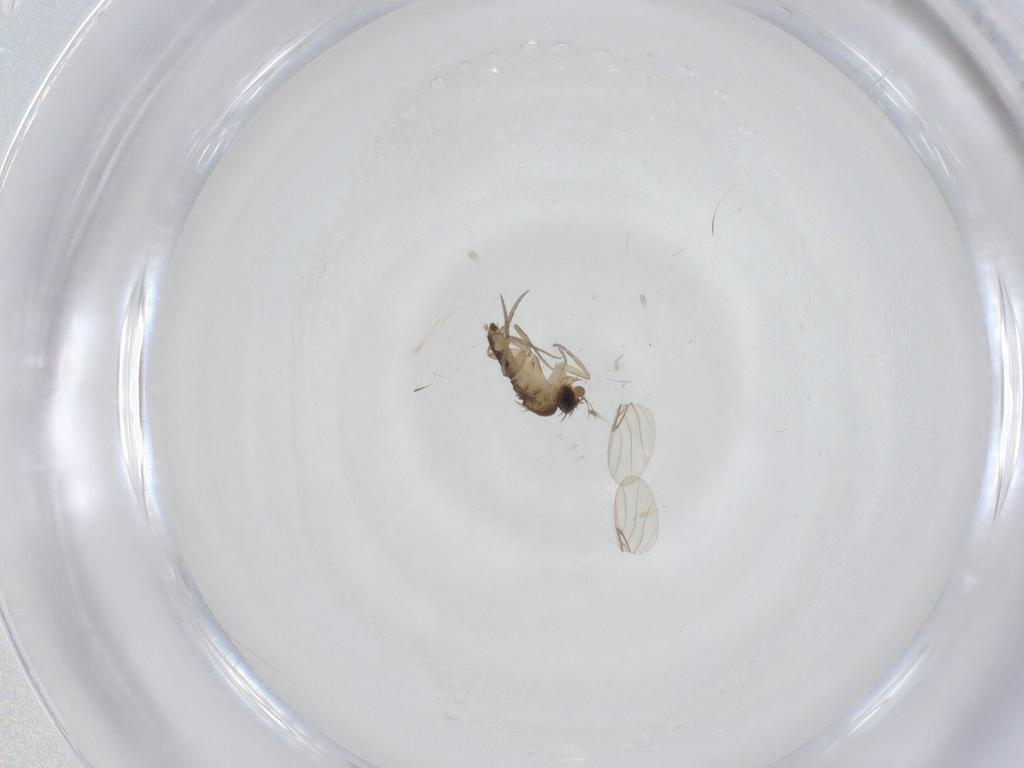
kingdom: Animalia
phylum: Arthropoda
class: Insecta
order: Diptera
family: Phoridae
